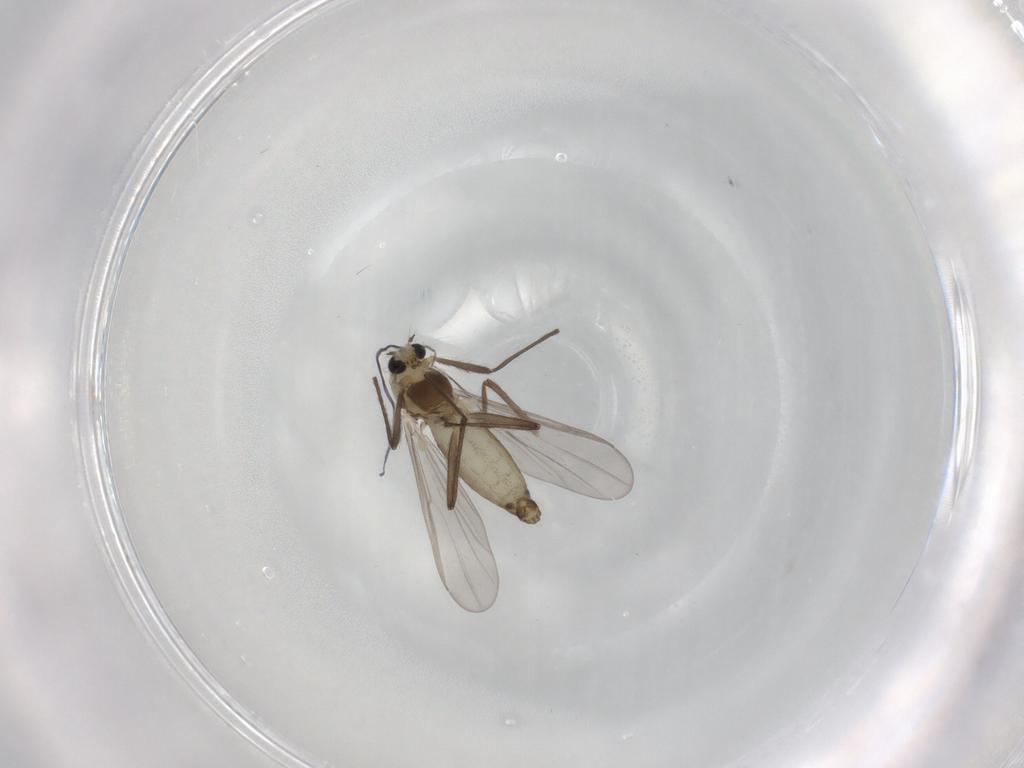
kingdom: Animalia
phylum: Arthropoda
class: Insecta
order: Diptera
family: Chironomidae
